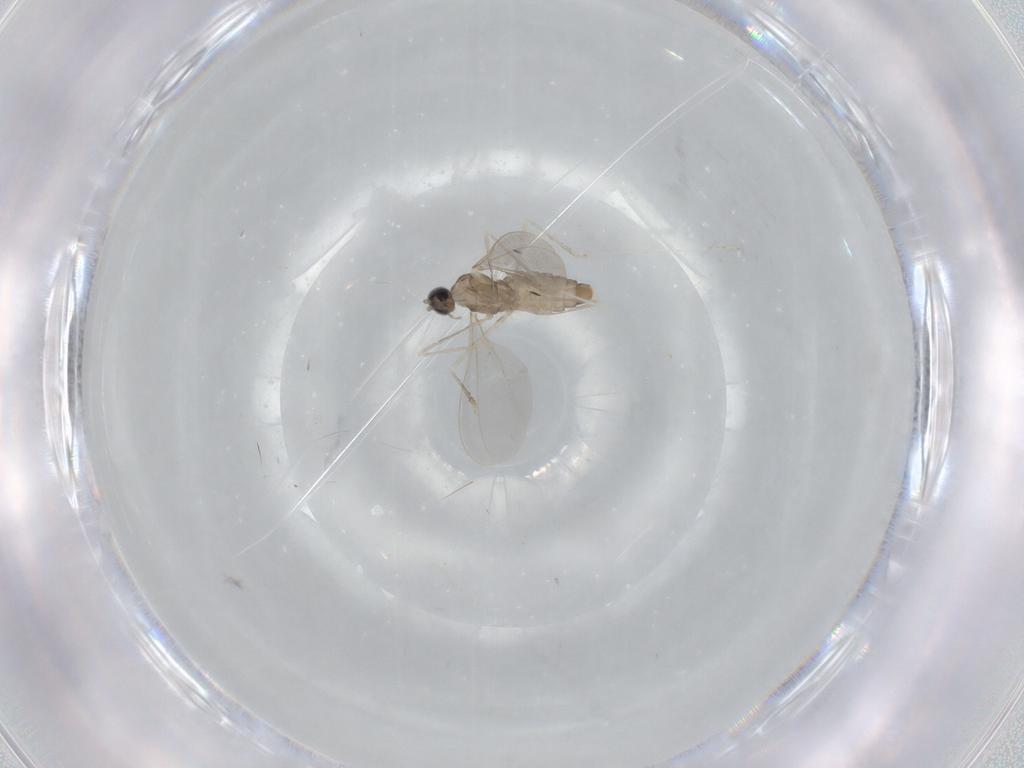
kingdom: Animalia
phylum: Arthropoda
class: Insecta
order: Diptera
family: Cecidomyiidae
